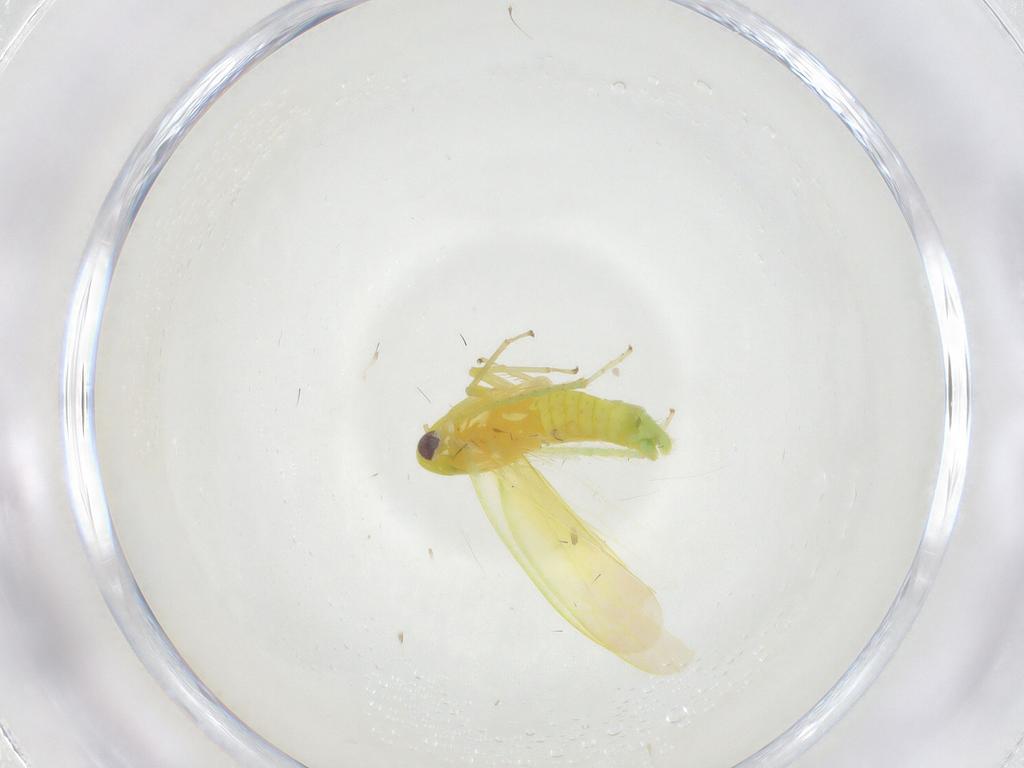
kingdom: Animalia
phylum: Arthropoda
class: Insecta
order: Hemiptera
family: Cicadellidae
